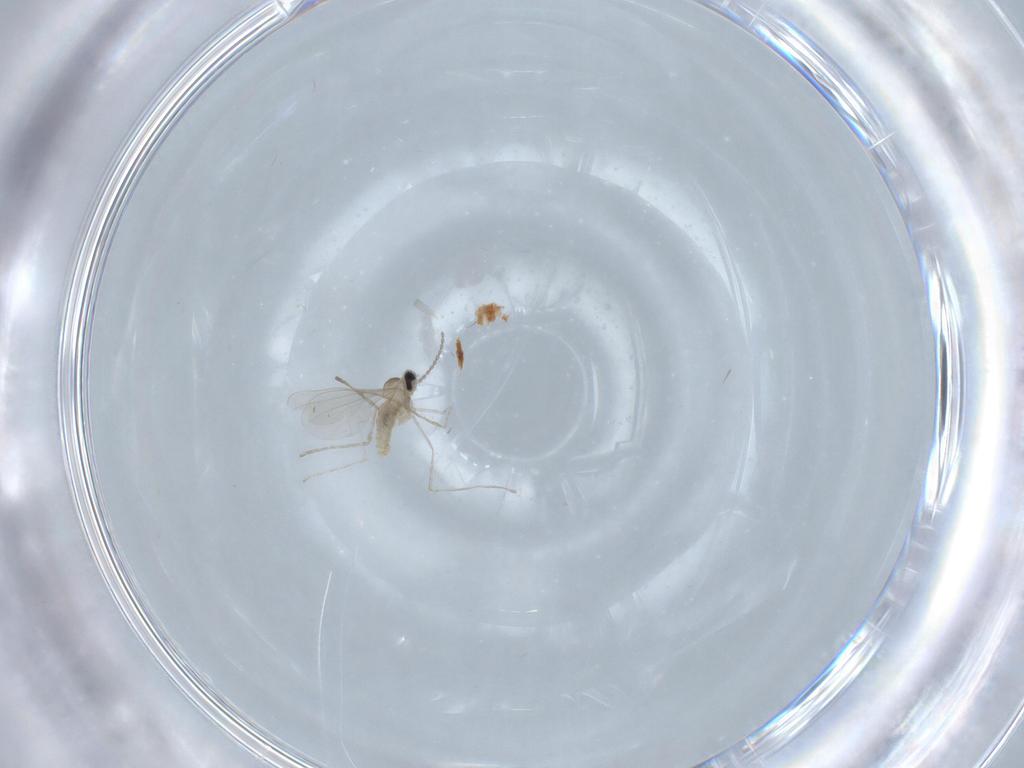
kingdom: Animalia
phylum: Arthropoda
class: Insecta
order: Diptera
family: Cecidomyiidae
